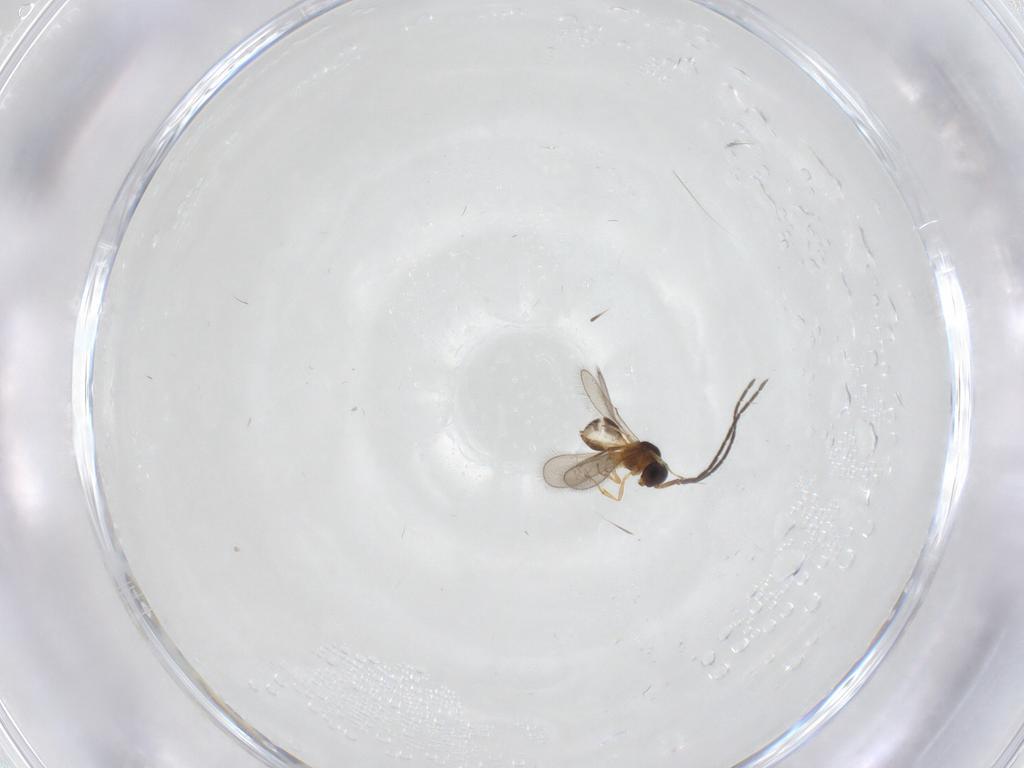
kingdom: Animalia
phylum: Arthropoda
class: Insecta
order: Hymenoptera
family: Scelionidae
